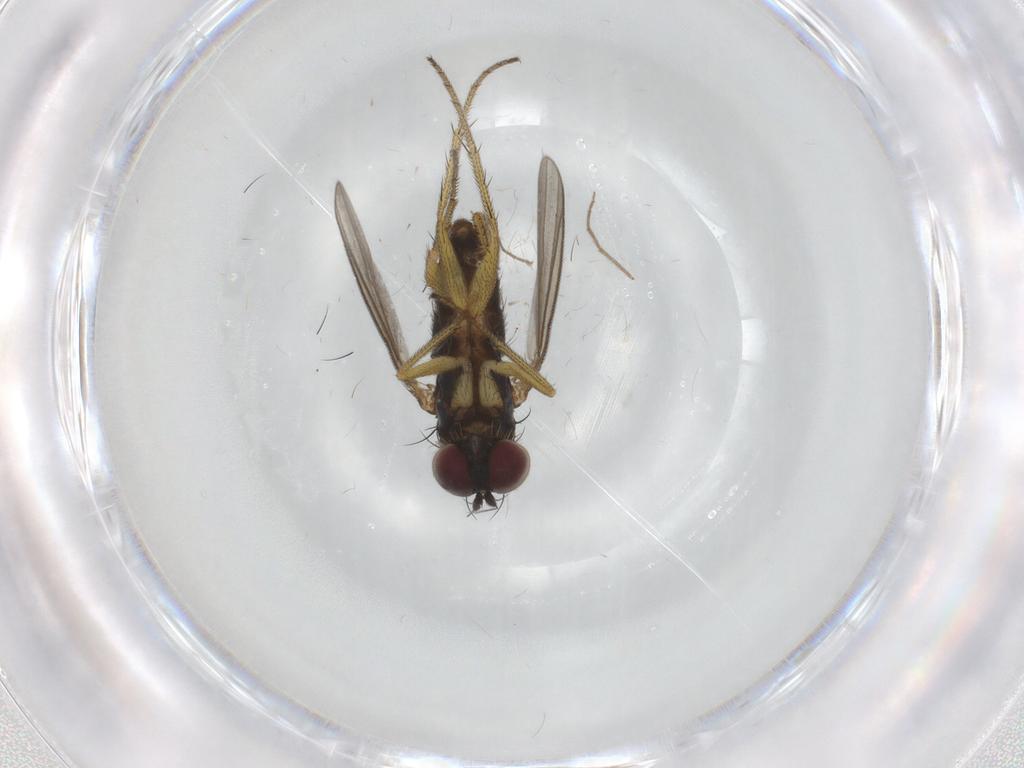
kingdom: Animalia
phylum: Arthropoda
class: Insecta
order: Diptera
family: Chironomidae
